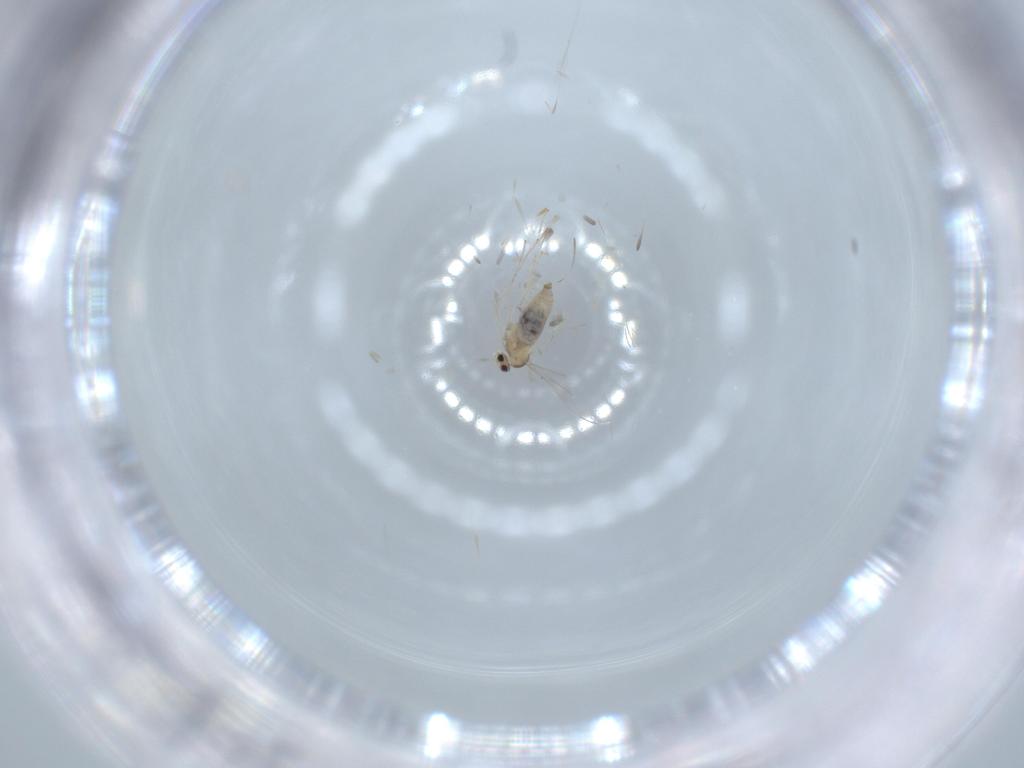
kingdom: Animalia
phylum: Arthropoda
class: Insecta
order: Diptera
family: Cecidomyiidae
